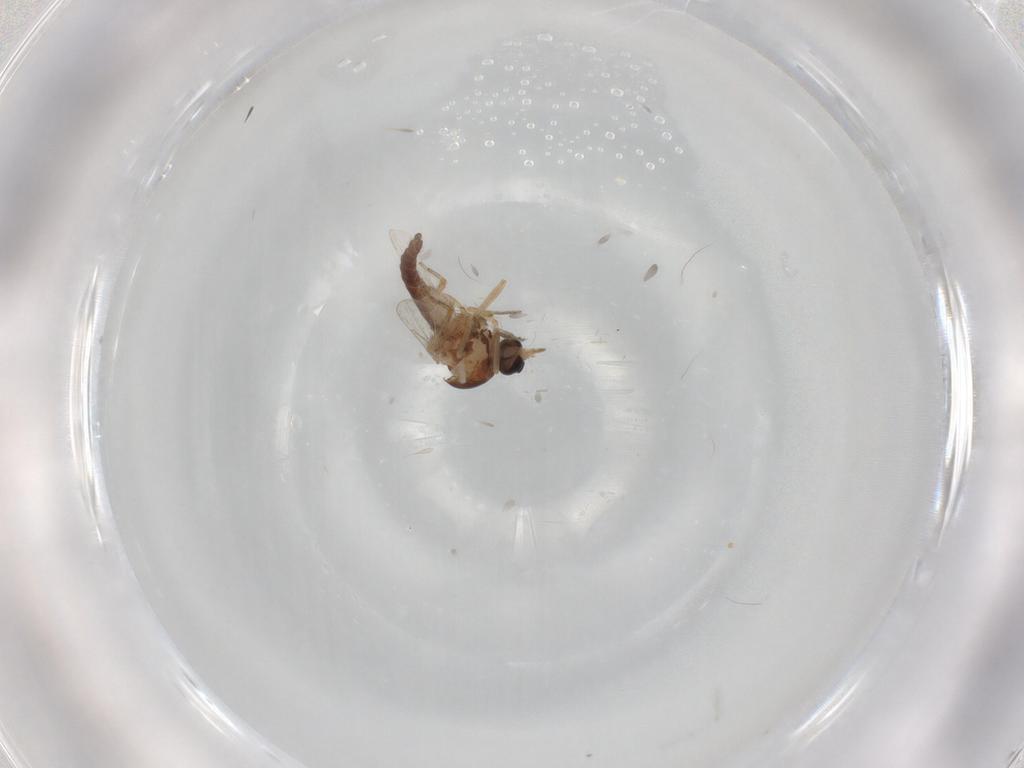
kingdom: Animalia
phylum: Arthropoda
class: Insecta
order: Diptera
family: Ceratopogonidae
